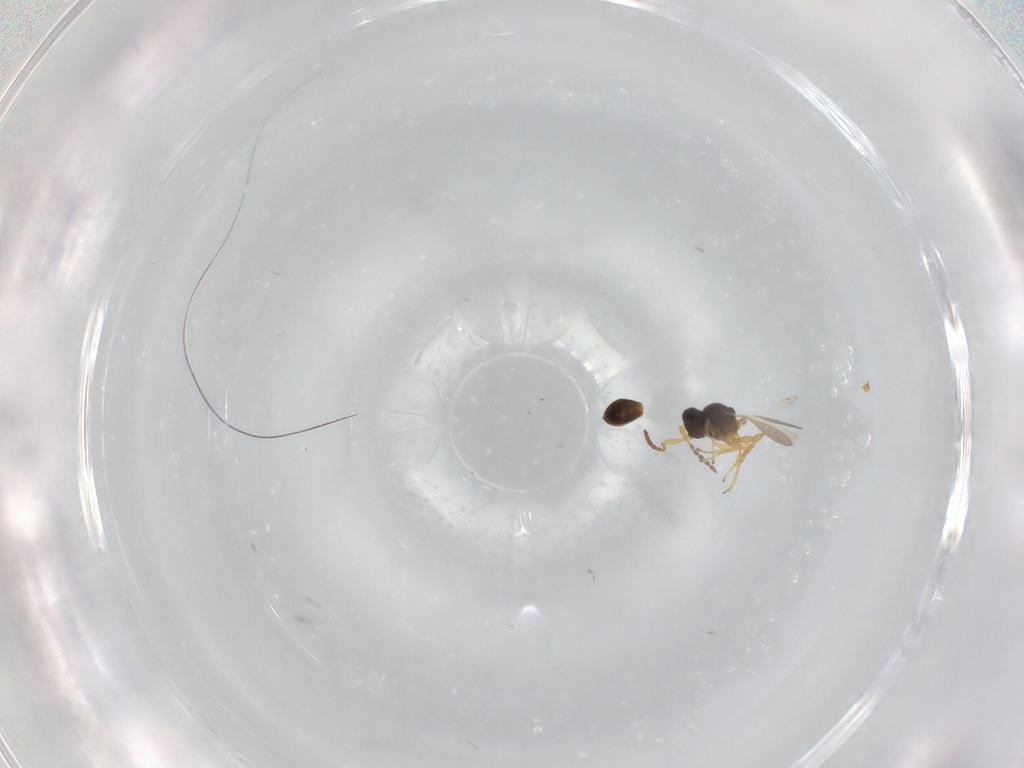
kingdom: Animalia
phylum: Arthropoda
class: Insecta
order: Hymenoptera
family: Platygastridae
